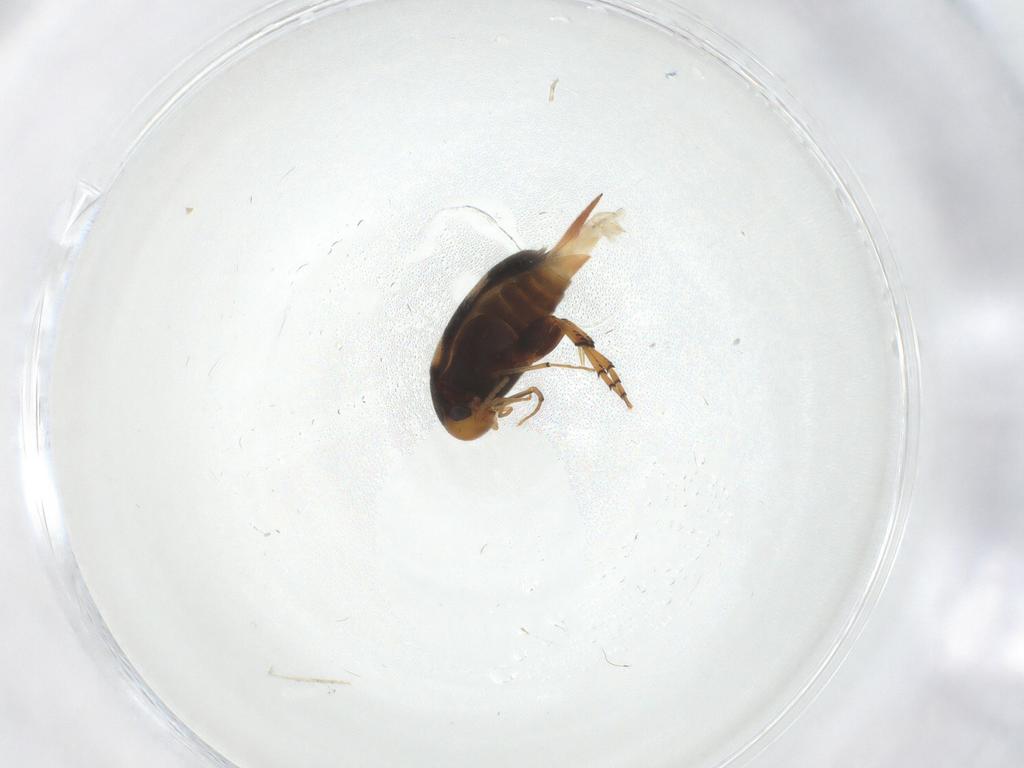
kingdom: Animalia
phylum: Arthropoda
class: Insecta
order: Coleoptera
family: Mordellidae
